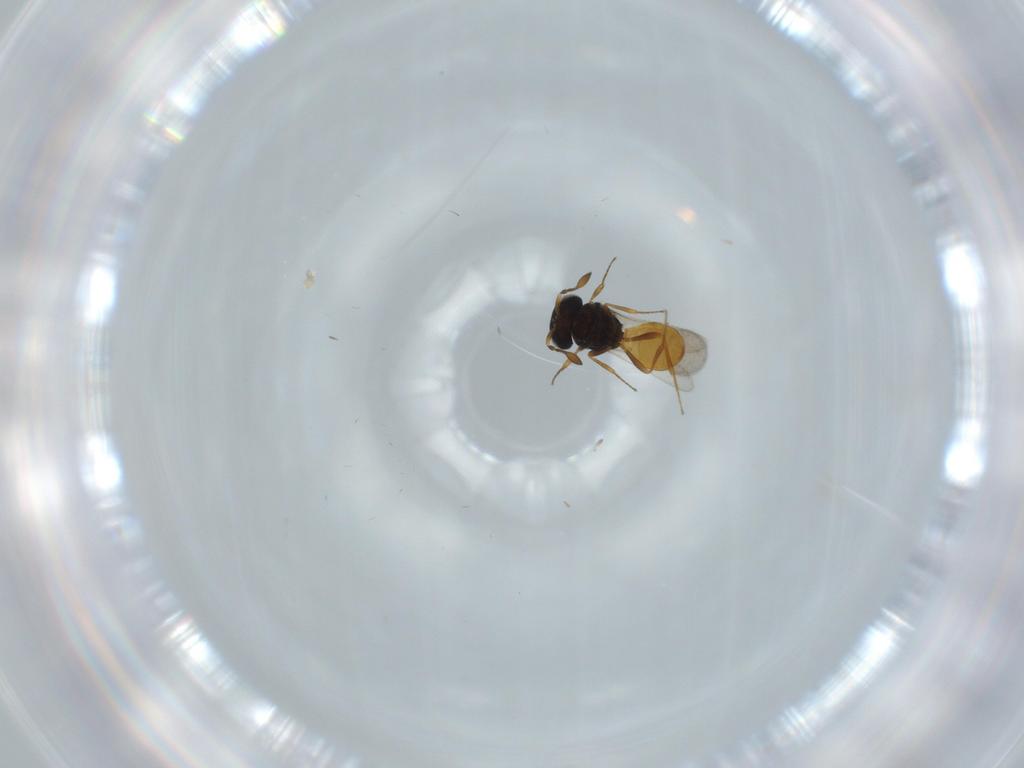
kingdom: Animalia
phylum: Arthropoda
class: Insecta
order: Hymenoptera
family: Scelionidae
